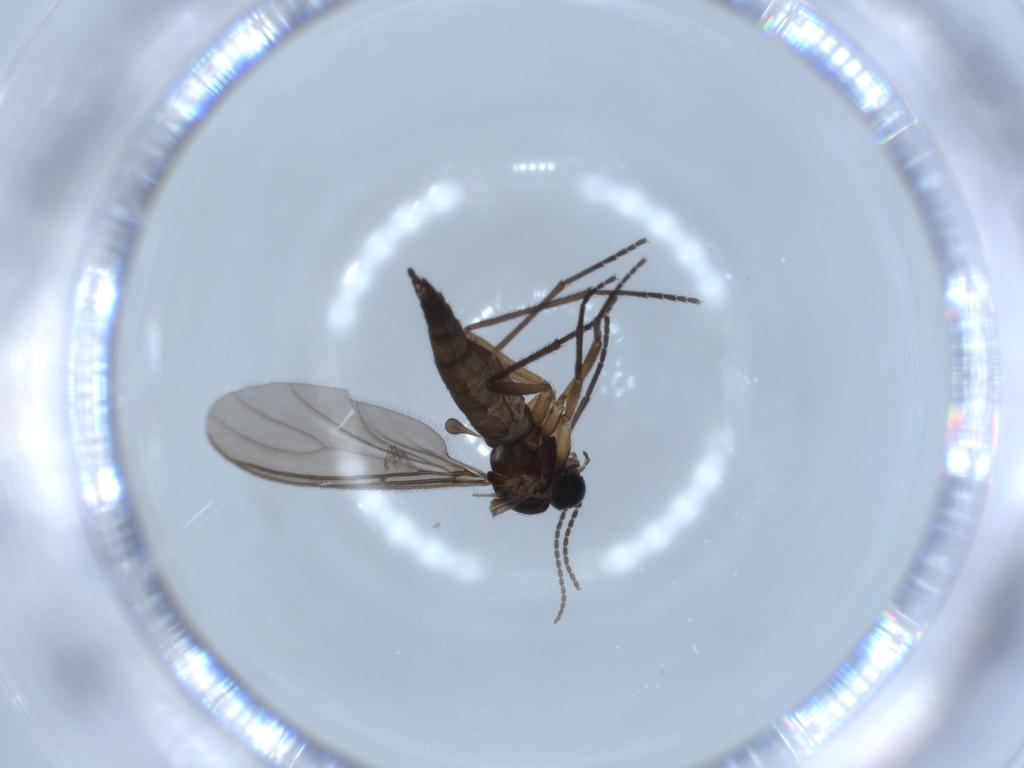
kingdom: Animalia
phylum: Arthropoda
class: Insecta
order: Diptera
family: Sciaridae
